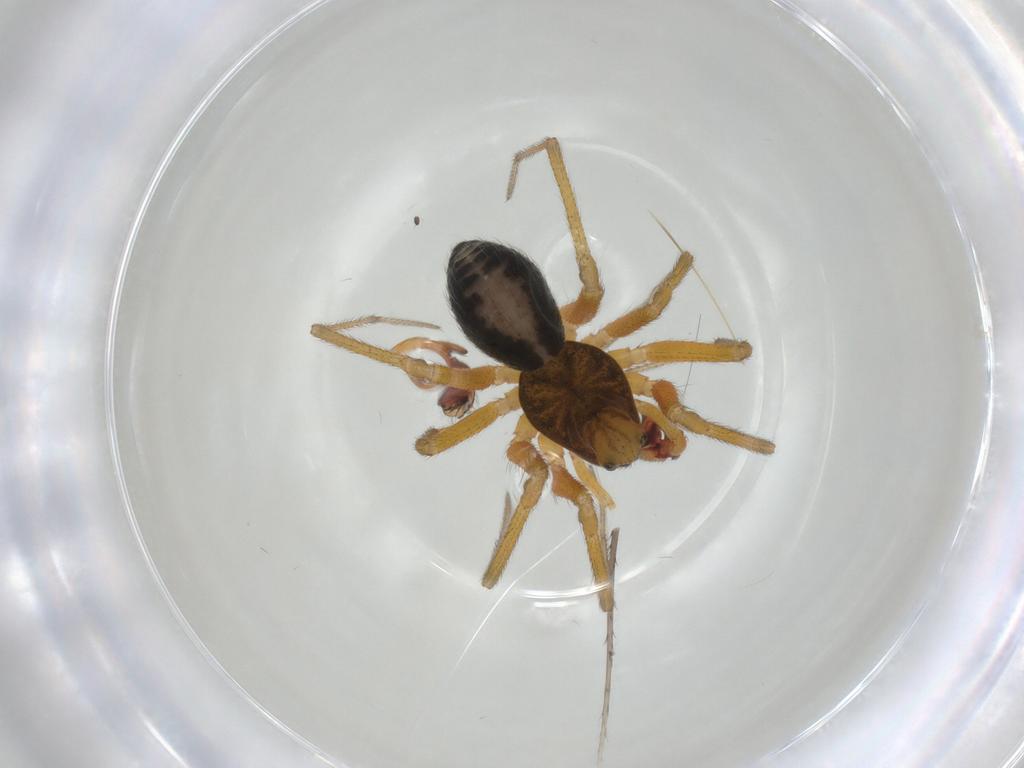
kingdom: Animalia
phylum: Arthropoda
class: Arachnida
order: Araneae
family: Linyphiidae
